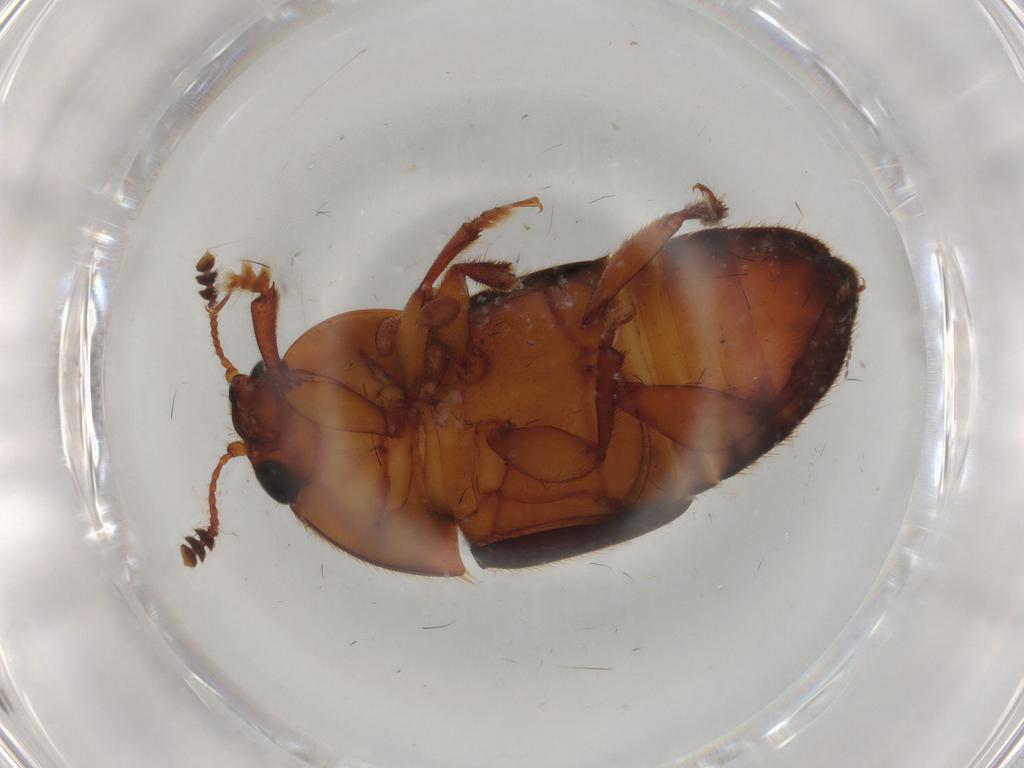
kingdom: Animalia
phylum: Arthropoda
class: Insecta
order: Coleoptera
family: Nitidulidae
